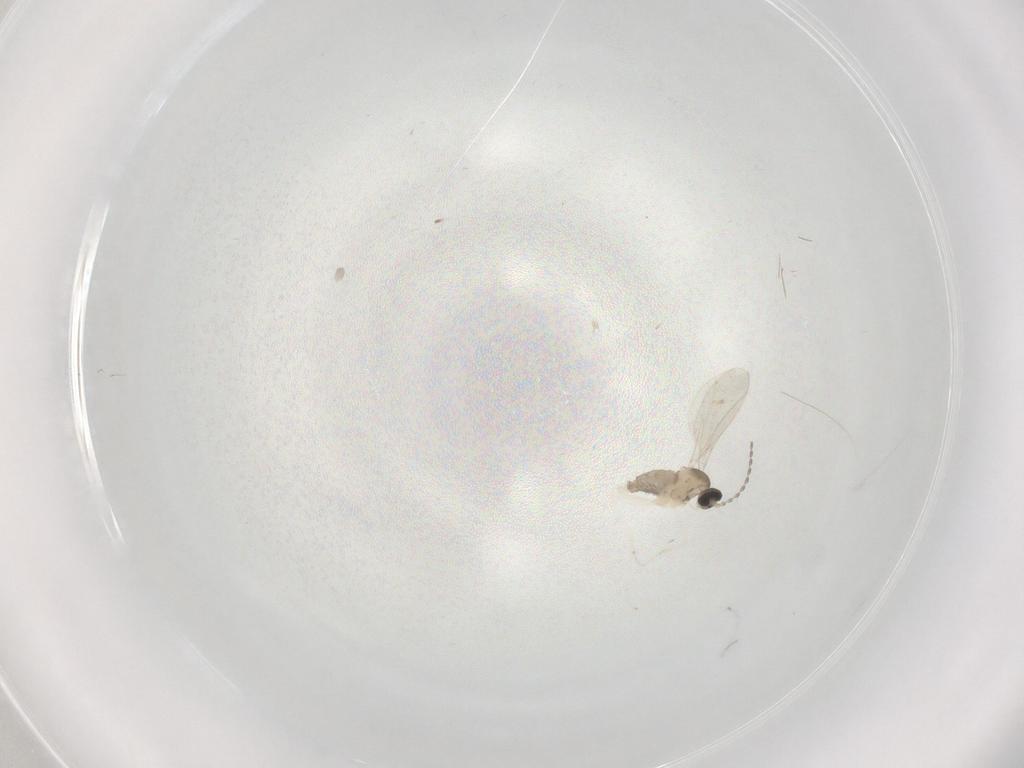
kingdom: Animalia
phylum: Arthropoda
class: Insecta
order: Diptera
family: Cecidomyiidae
